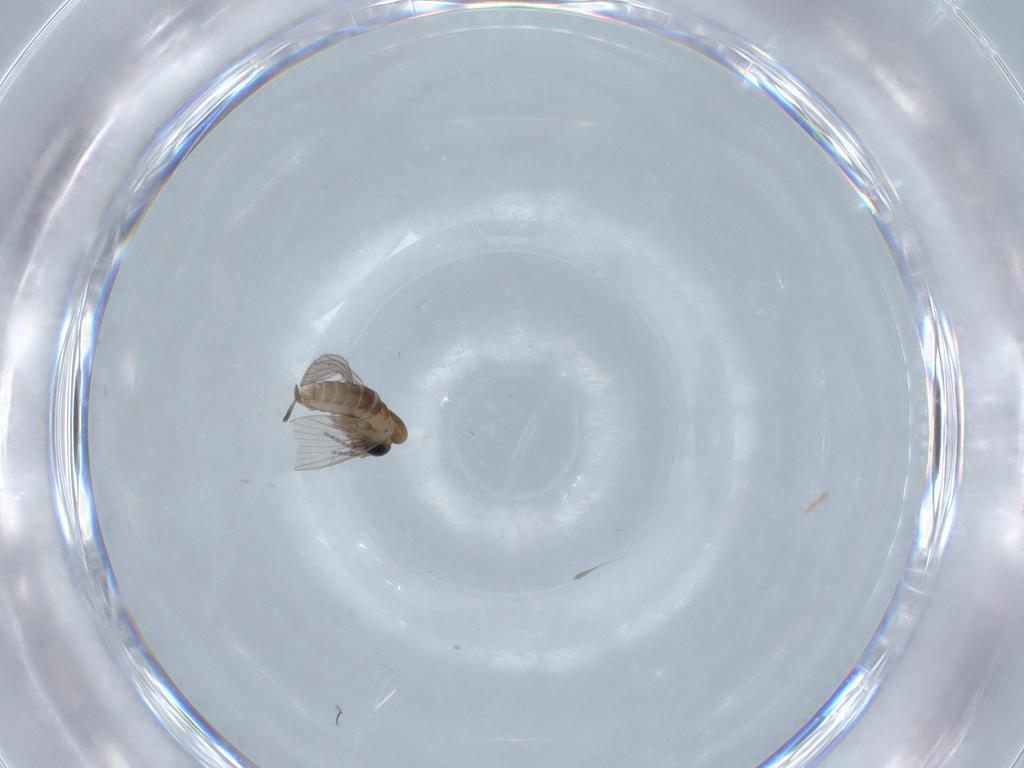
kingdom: Animalia
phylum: Arthropoda
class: Insecta
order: Diptera
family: Psychodidae
